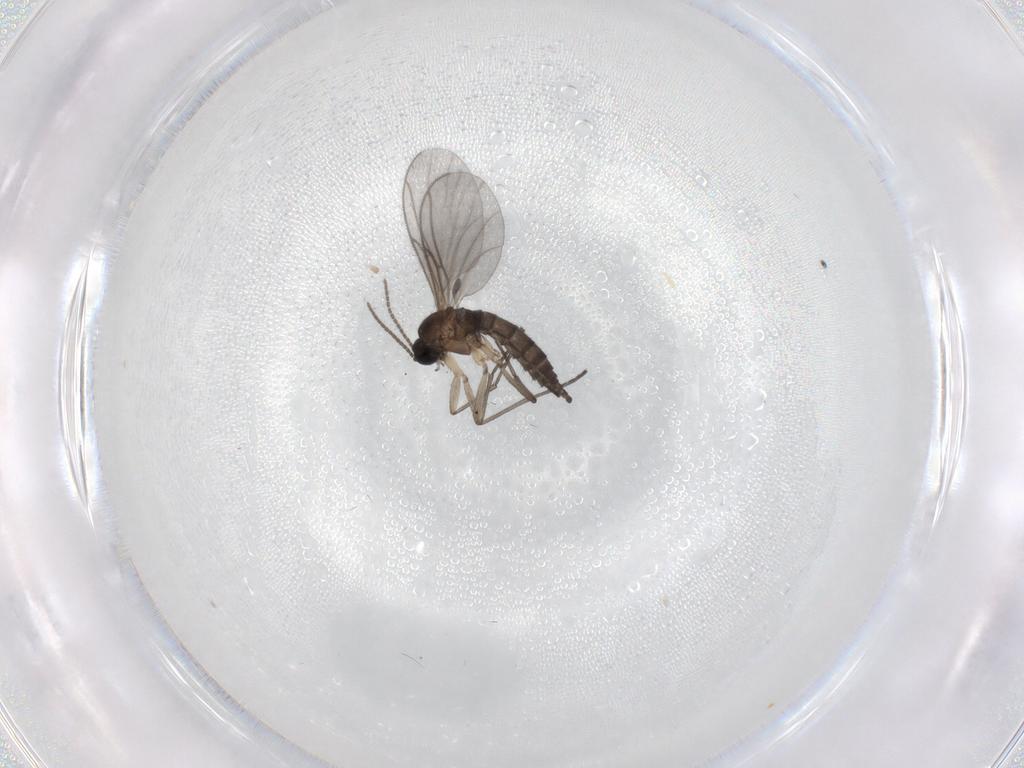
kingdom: Animalia
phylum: Arthropoda
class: Insecta
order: Diptera
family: Sciaridae
